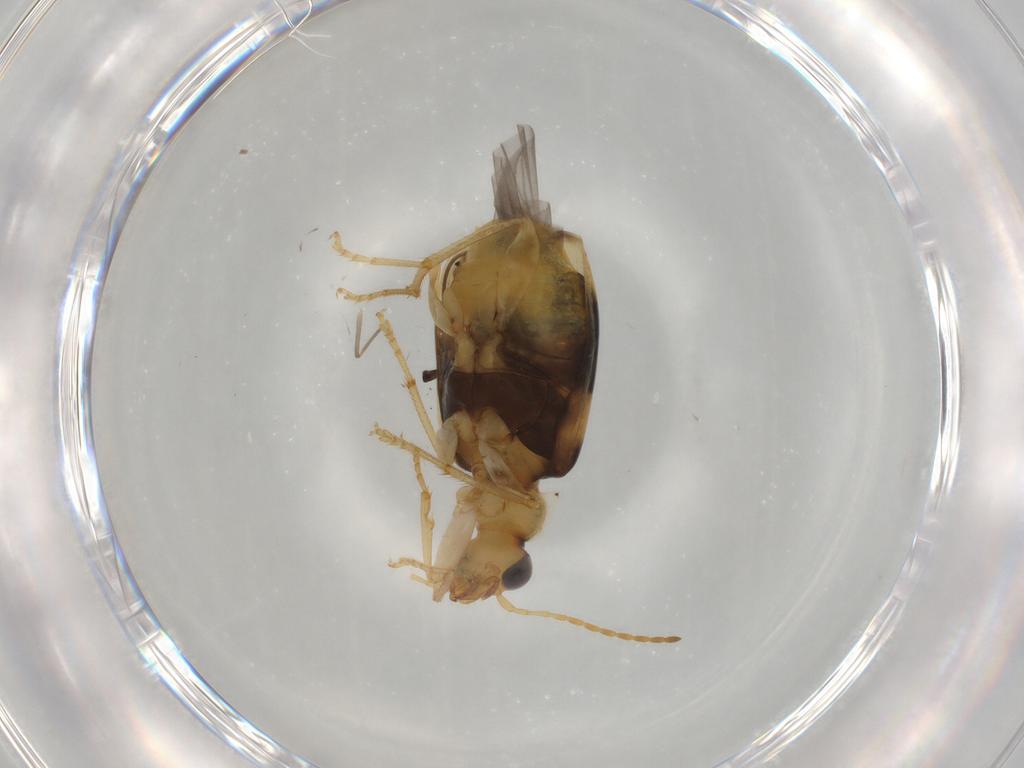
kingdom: Animalia
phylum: Arthropoda
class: Insecta
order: Coleoptera
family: Carabidae
